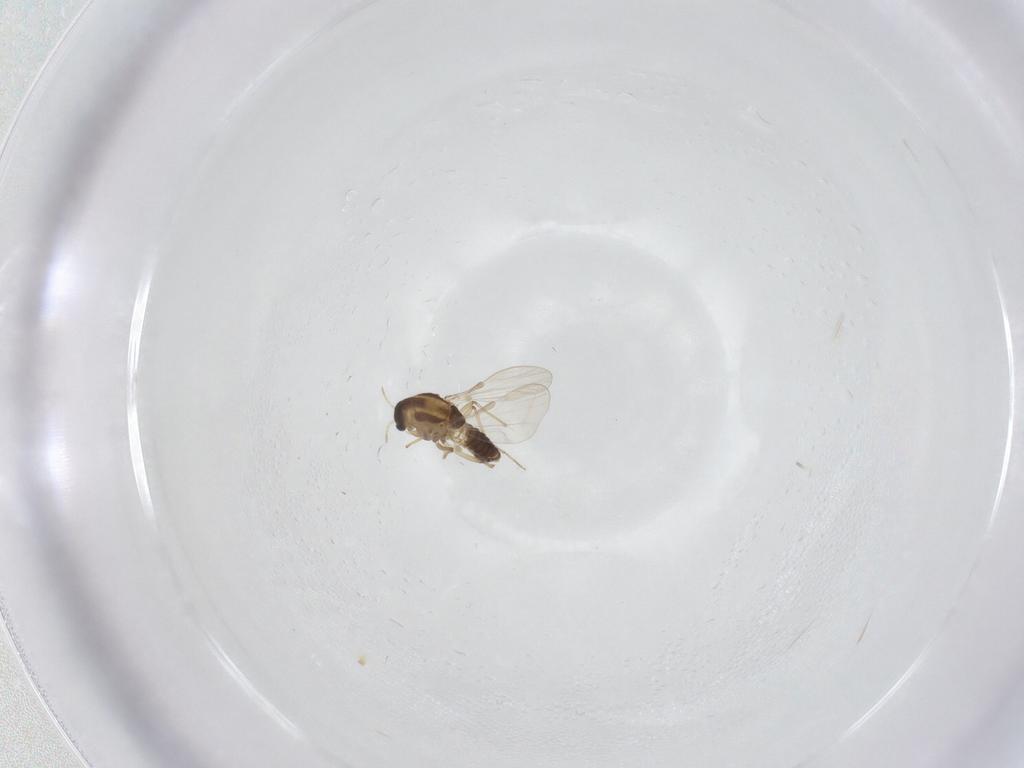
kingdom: Animalia
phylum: Arthropoda
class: Insecta
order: Diptera
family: Chironomidae
